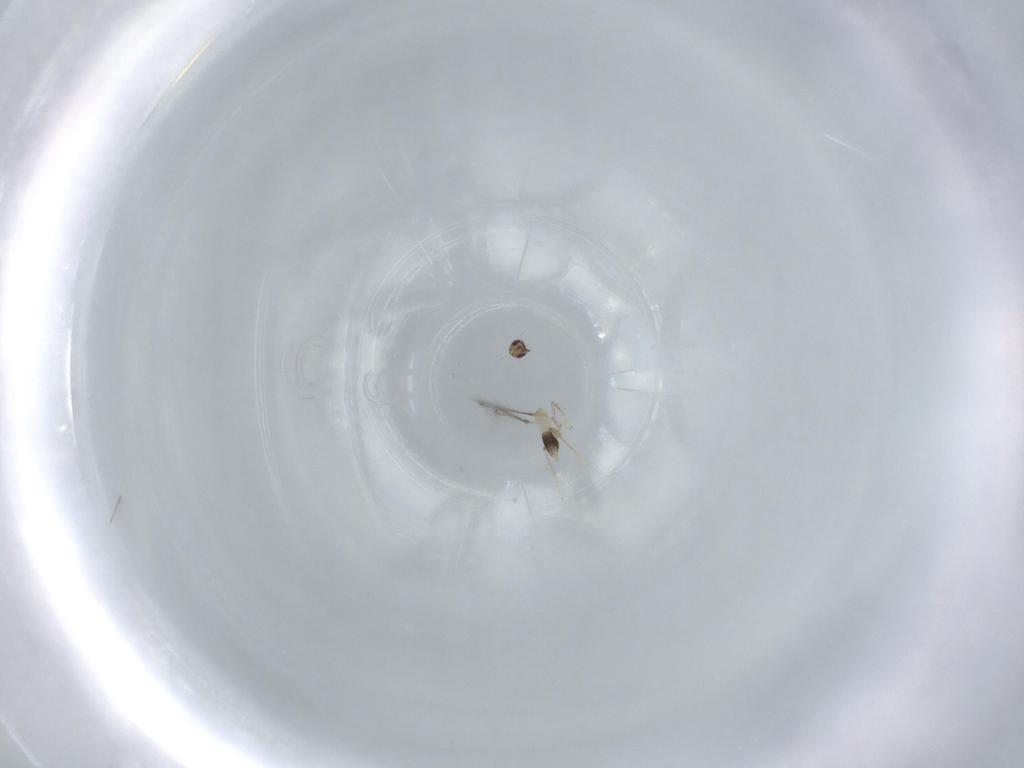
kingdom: Animalia
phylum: Arthropoda
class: Insecta
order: Hymenoptera
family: Mymaridae
